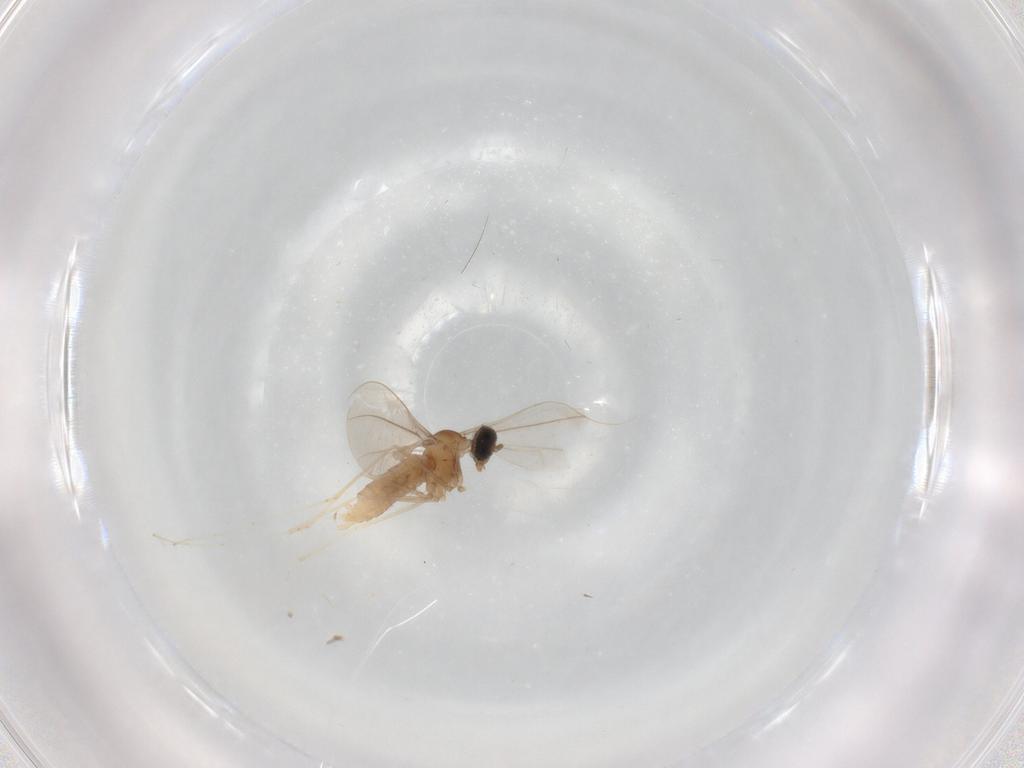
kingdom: Animalia
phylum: Arthropoda
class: Insecta
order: Diptera
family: Cecidomyiidae
